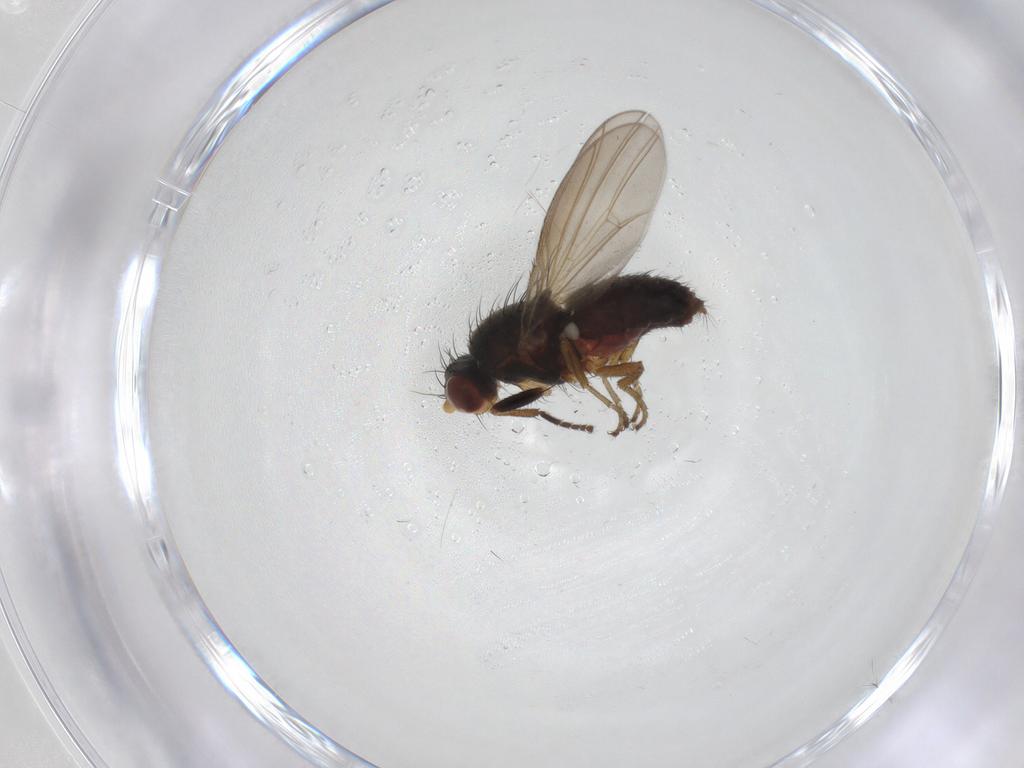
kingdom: Animalia
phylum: Arthropoda
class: Insecta
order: Diptera
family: Heleomyzidae
